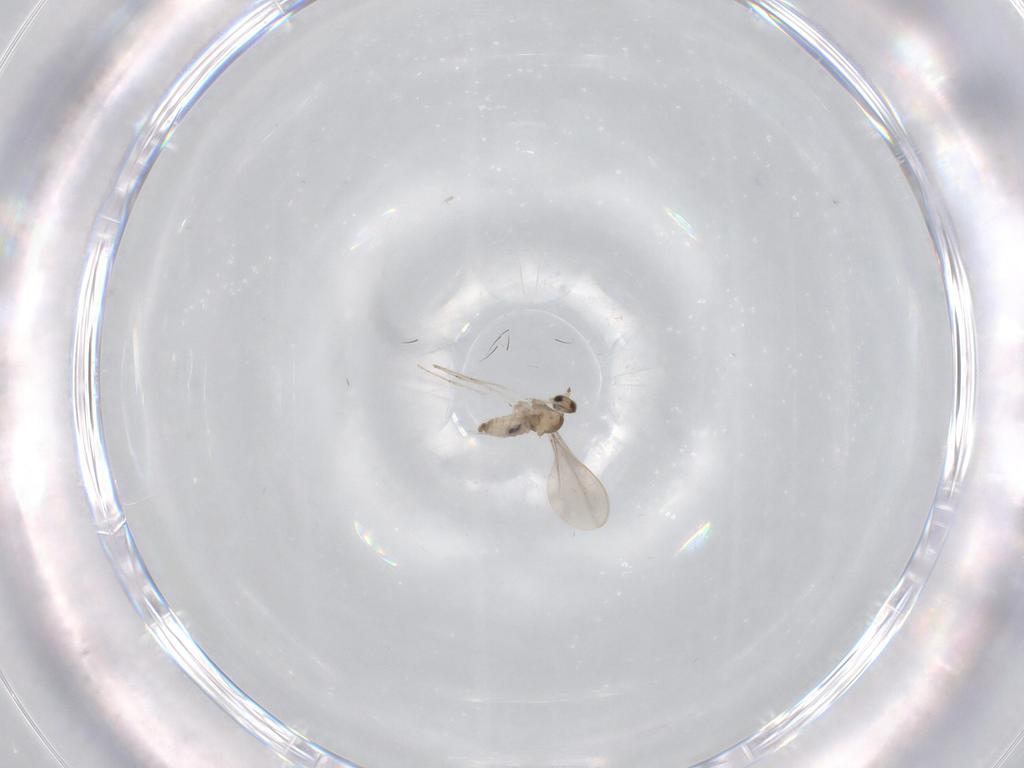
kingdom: Animalia
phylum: Arthropoda
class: Insecta
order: Diptera
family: Cecidomyiidae
